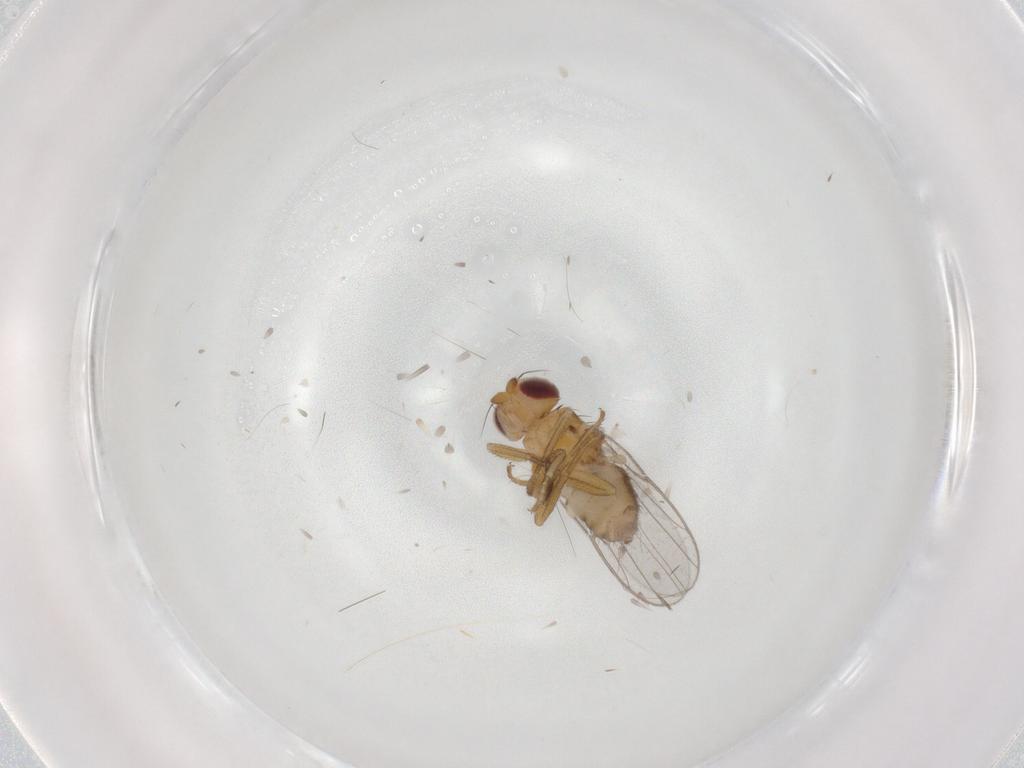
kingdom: Animalia
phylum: Arthropoda
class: Insecta
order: Diptera
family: Chloropidae
